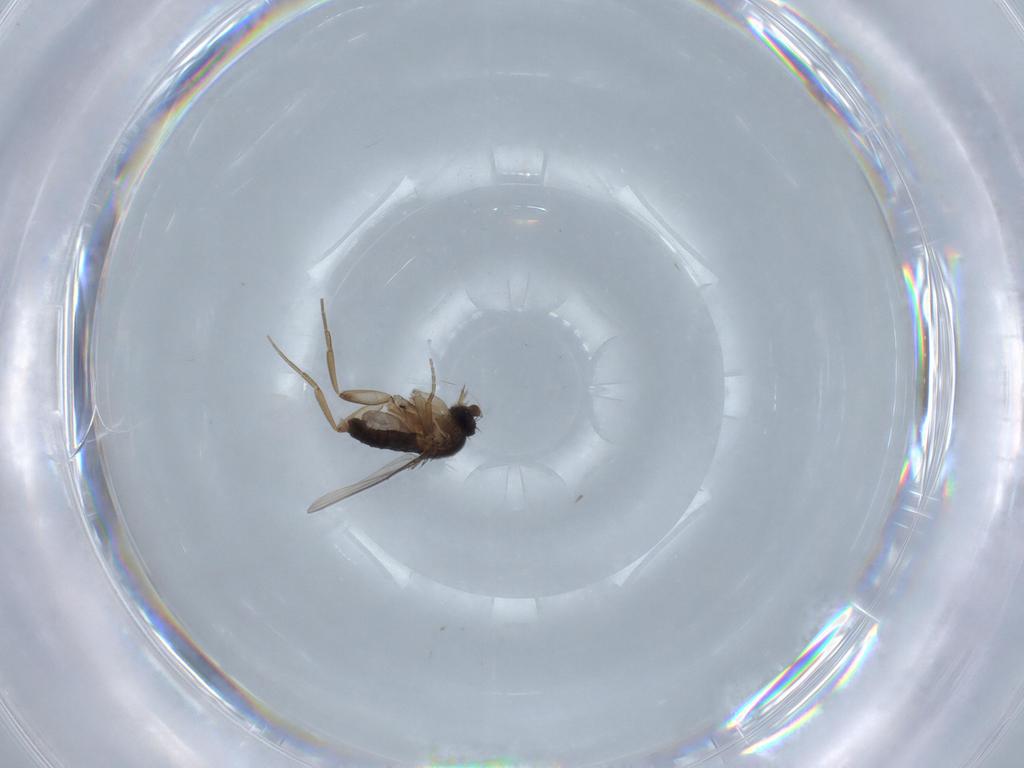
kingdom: Animalia
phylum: Arthropoda
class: Insecta
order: Diptera
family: Phoridae
